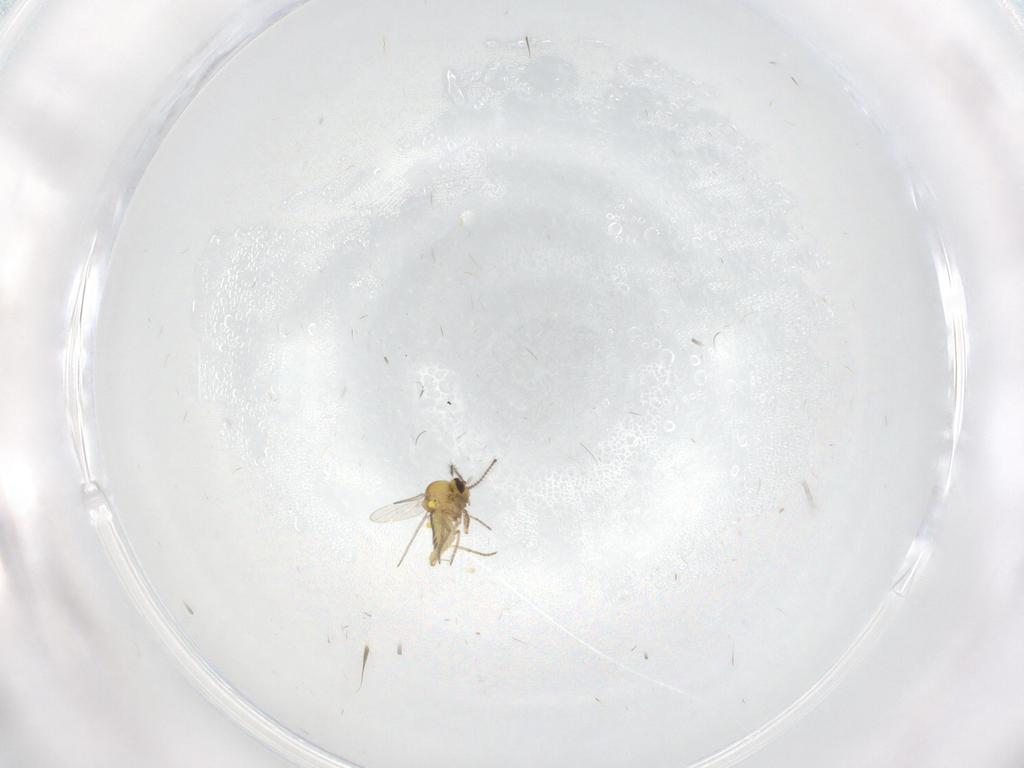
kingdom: Animalia
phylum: Arthropoda
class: Insecta
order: Diptera
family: Ceratopogonidae
